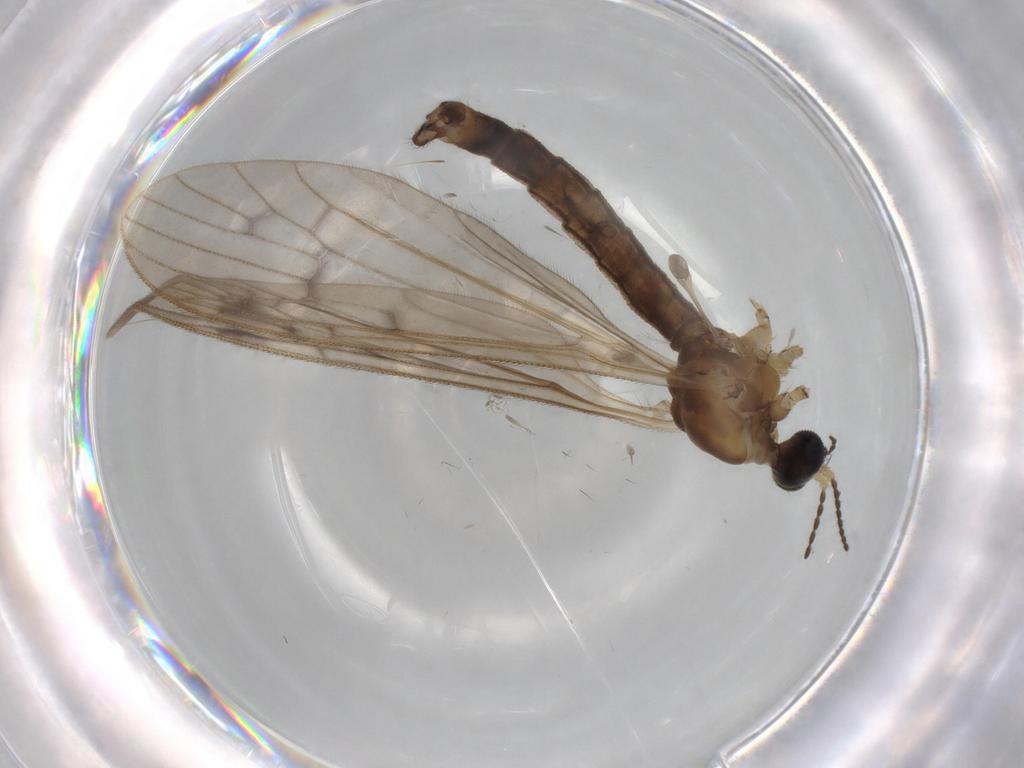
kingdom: Animalia
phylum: Arthropoda
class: Insecta
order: Diptera
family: Sciaridae
